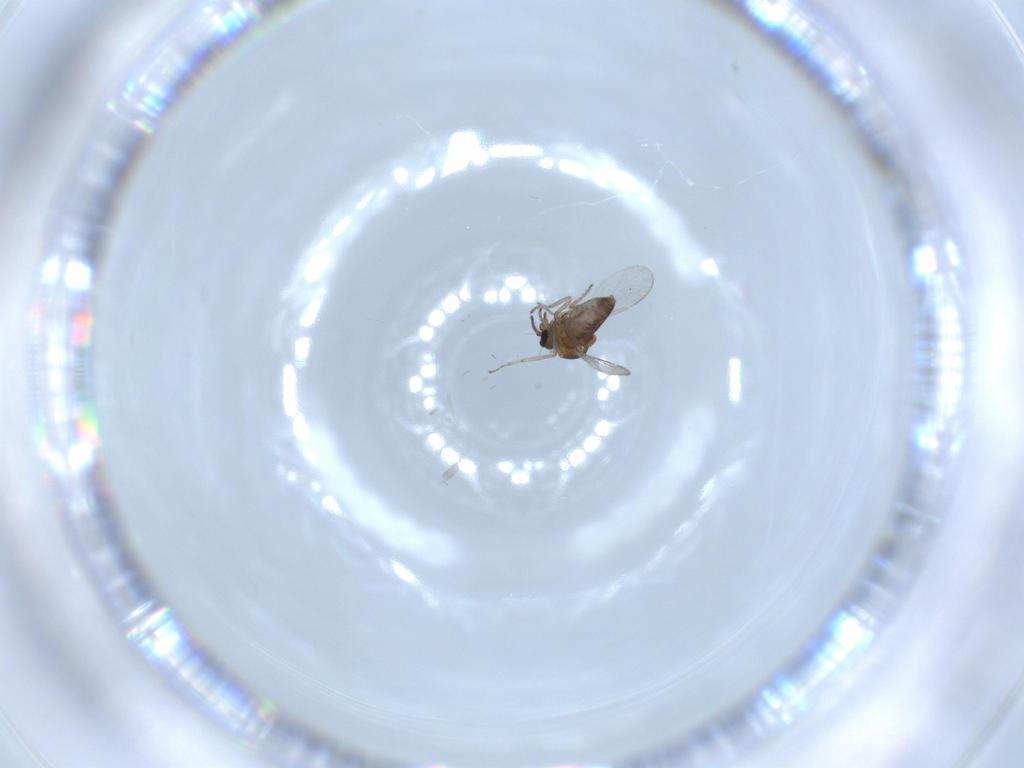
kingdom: Animalia
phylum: Arthropoda
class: Insecta
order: Diptera
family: Ceratopogonidae
